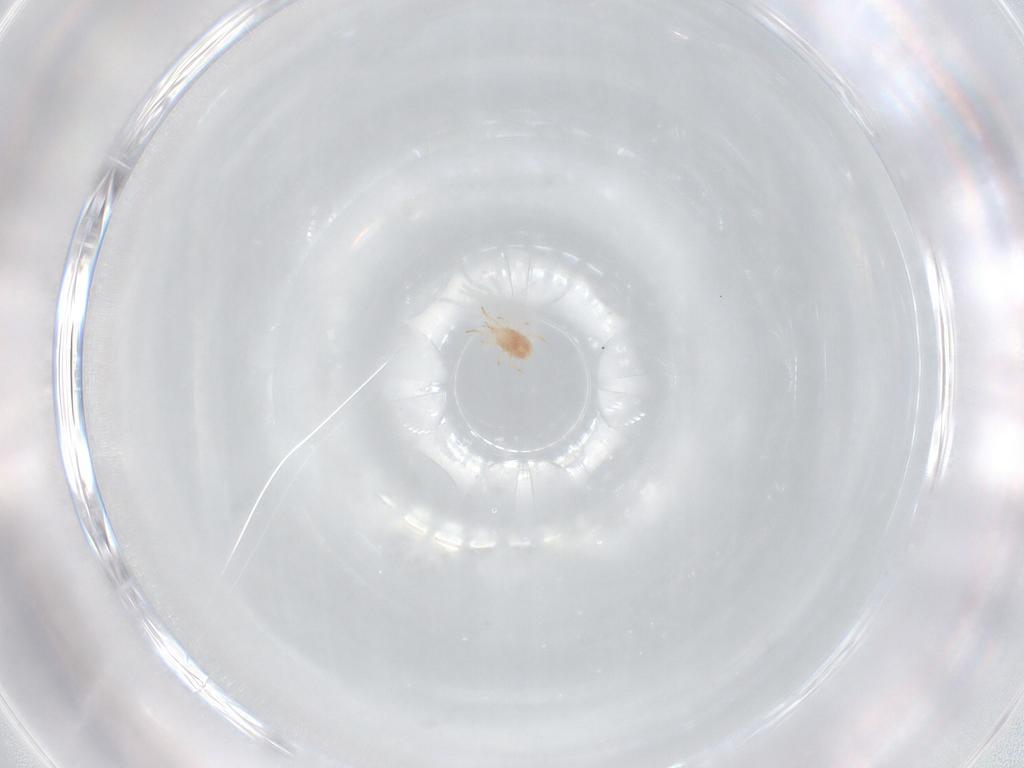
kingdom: Animalia
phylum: Arthropoda
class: Arachnida
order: Mesostigmata
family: Phytoseiidae
